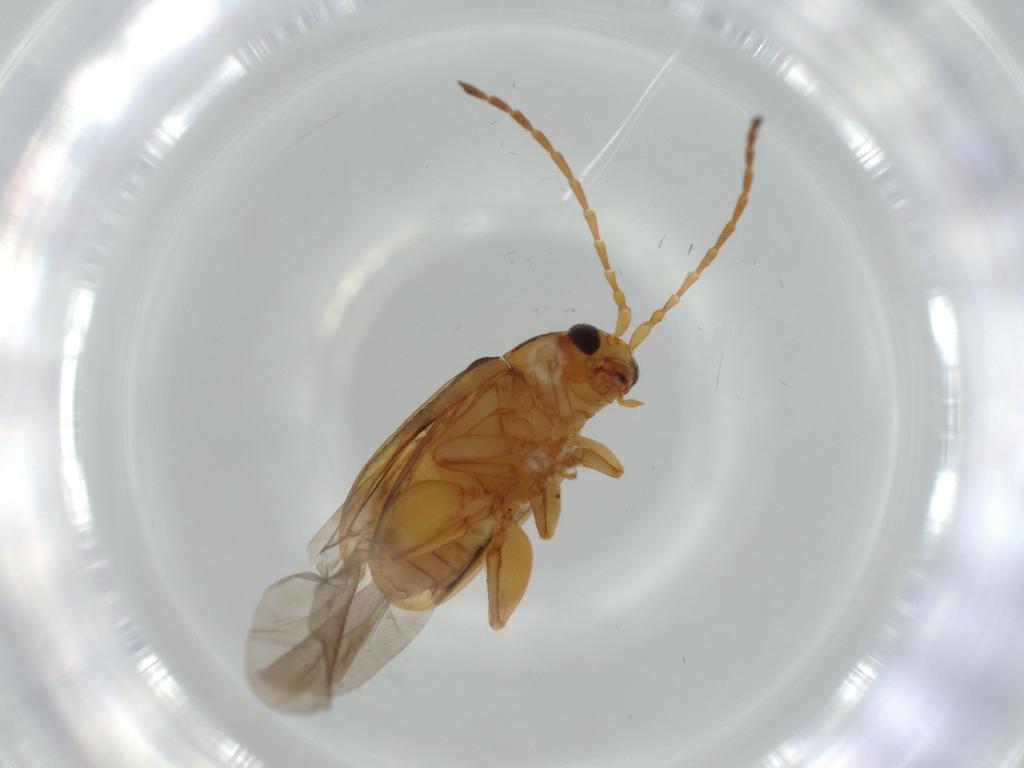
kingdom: Animalia
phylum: Arthropoda
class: Insecta
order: Coleoptera
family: Chrysomelidae
